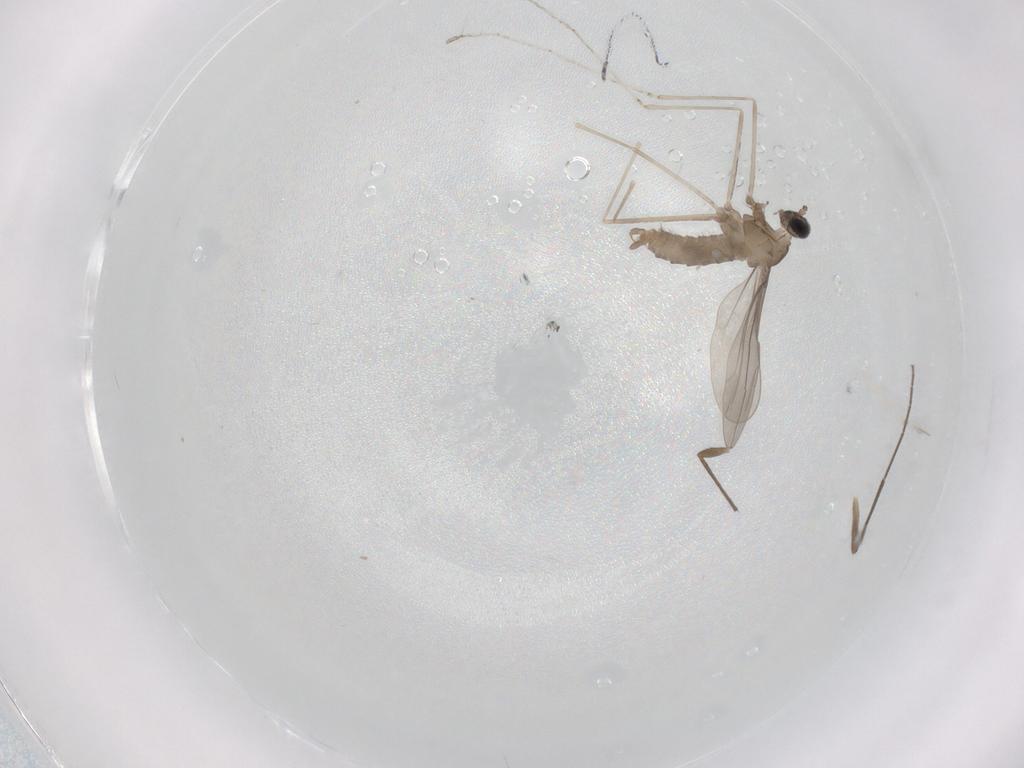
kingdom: Animalia
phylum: Arthropoda
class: Insecta
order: Diptera
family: Cecidomyiidae
